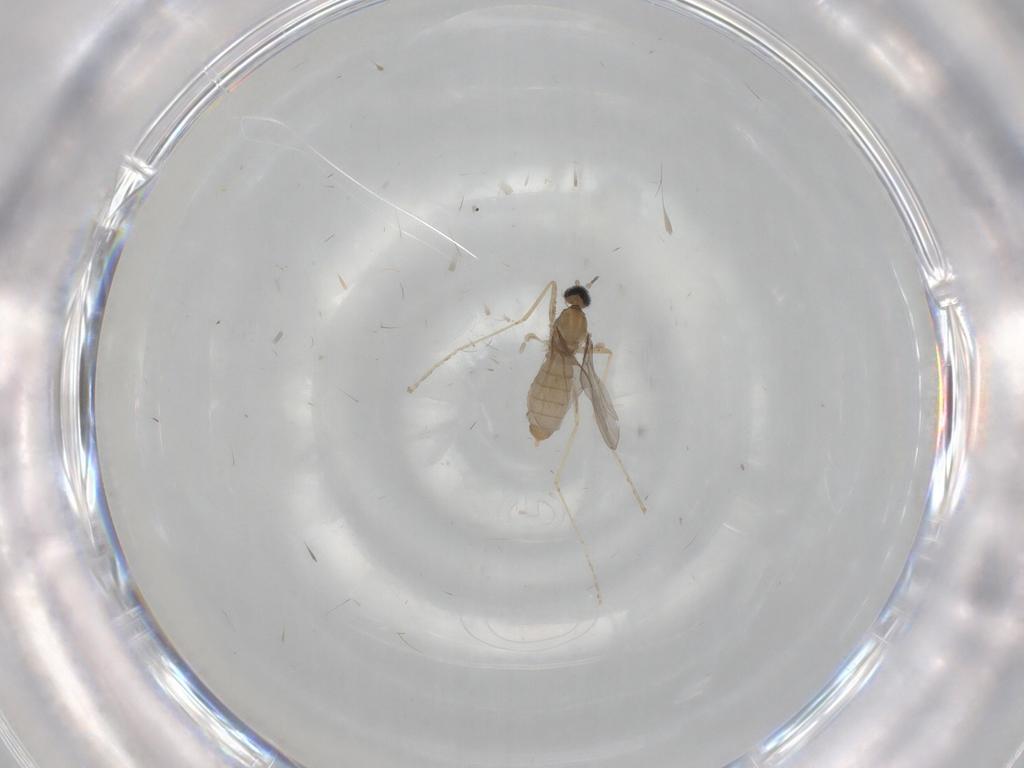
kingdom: Animalia
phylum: Arthropoda
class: Insecta
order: Diptera
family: Cecidomyiidae
